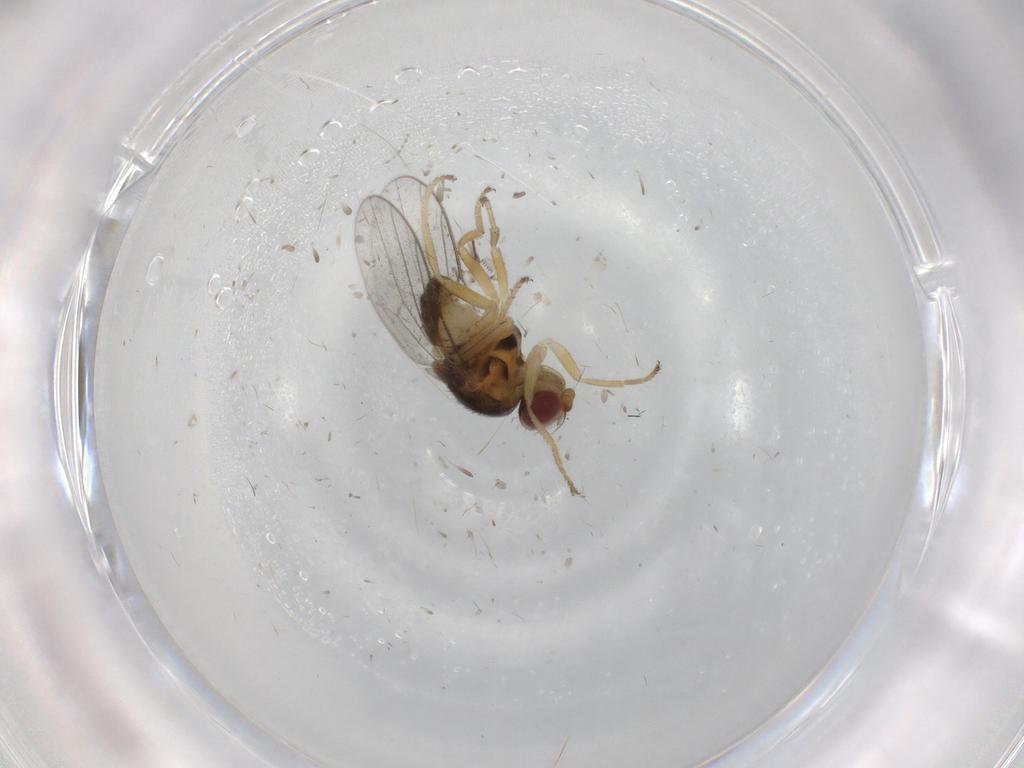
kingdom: Animalia
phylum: Arthropoda
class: Insecta
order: Diptera
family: Chloropidae
